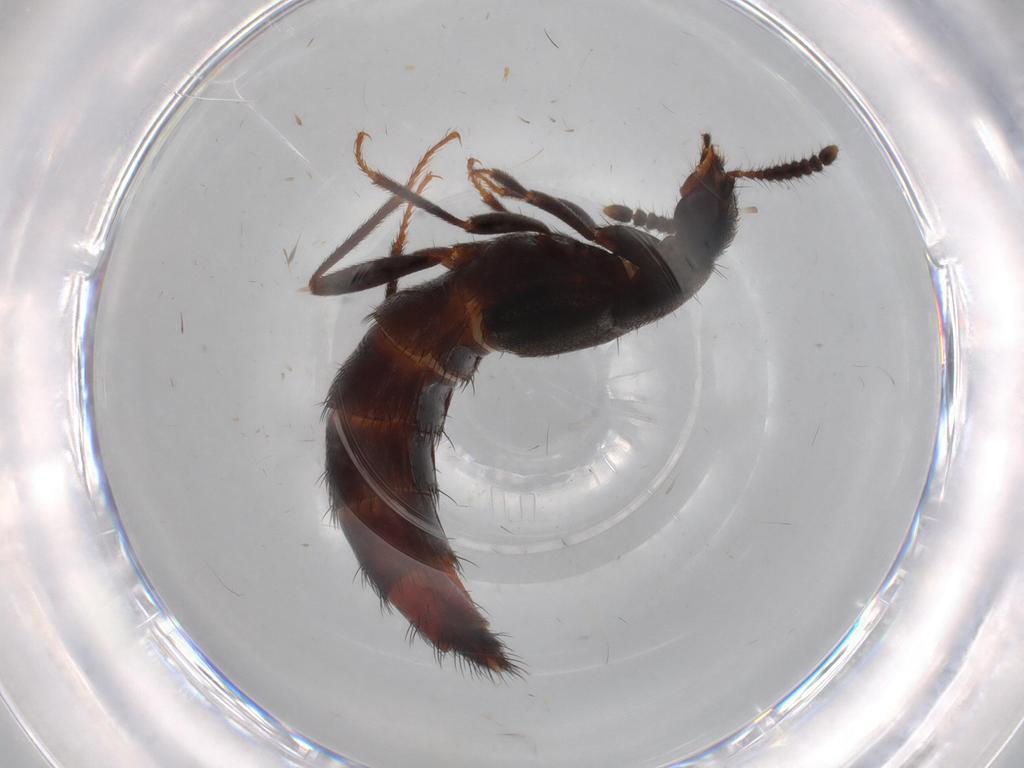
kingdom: Animalia
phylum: Arthropoda
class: Insecta
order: Coleoptera
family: Staphylinidae
